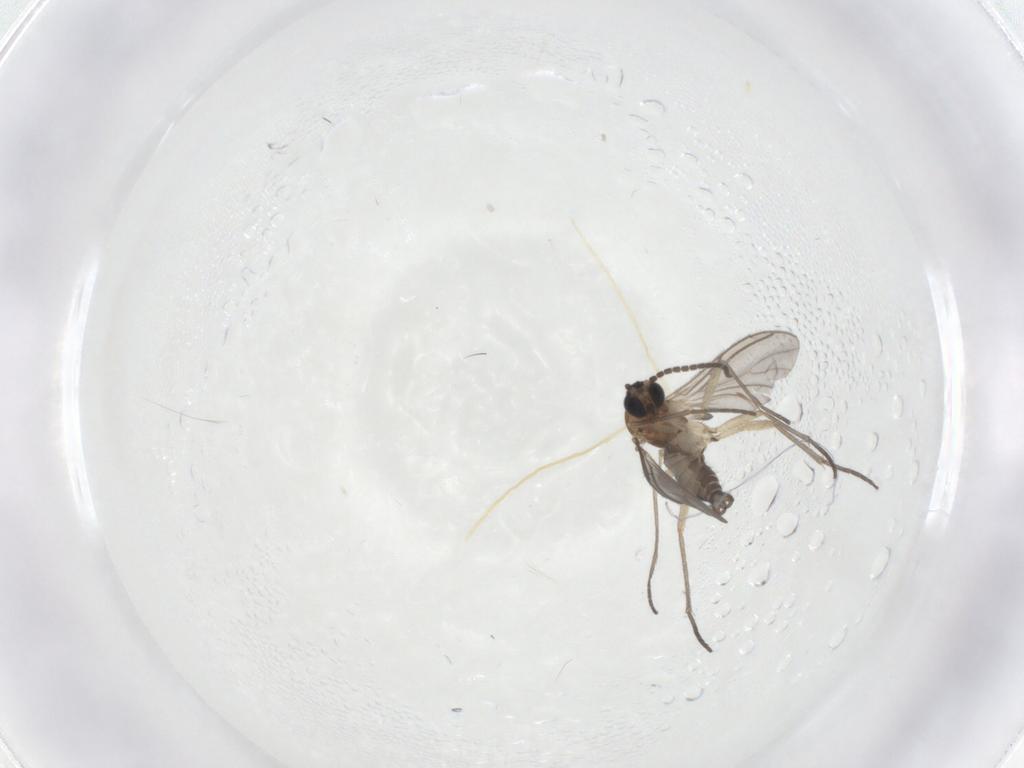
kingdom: Animalia
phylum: Arthropoda
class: Insecta
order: Diptera
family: Sciaridae
